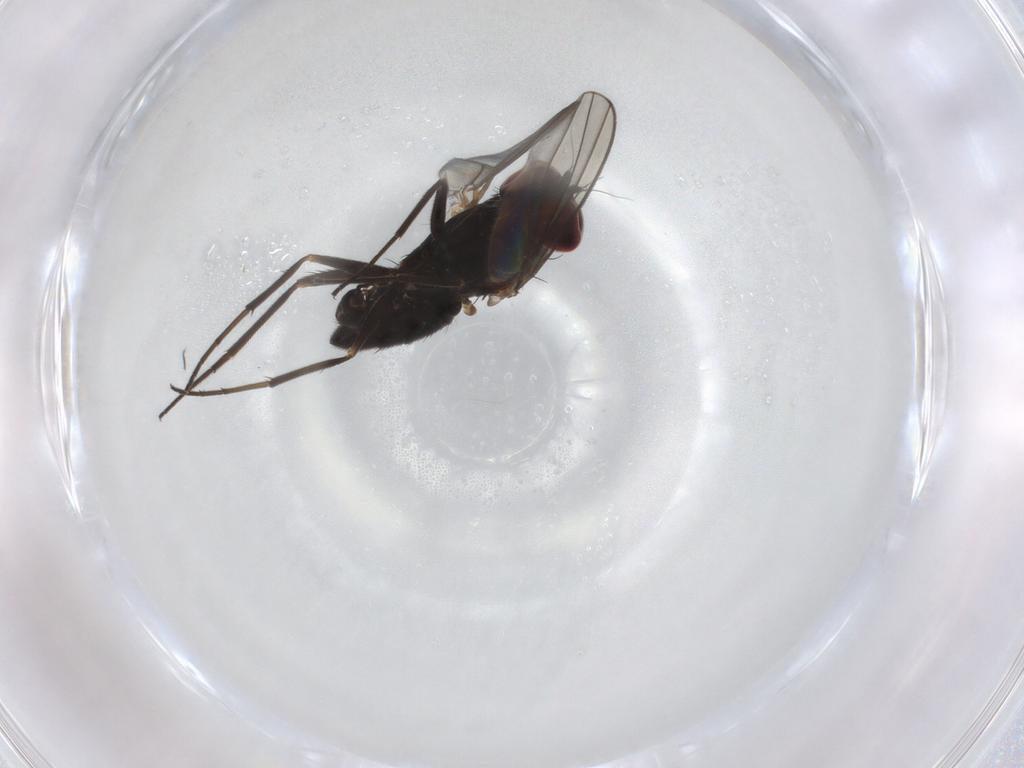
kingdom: Animalia
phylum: Arthropoda
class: Insecta
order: Diptera
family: Dolichopodidae
